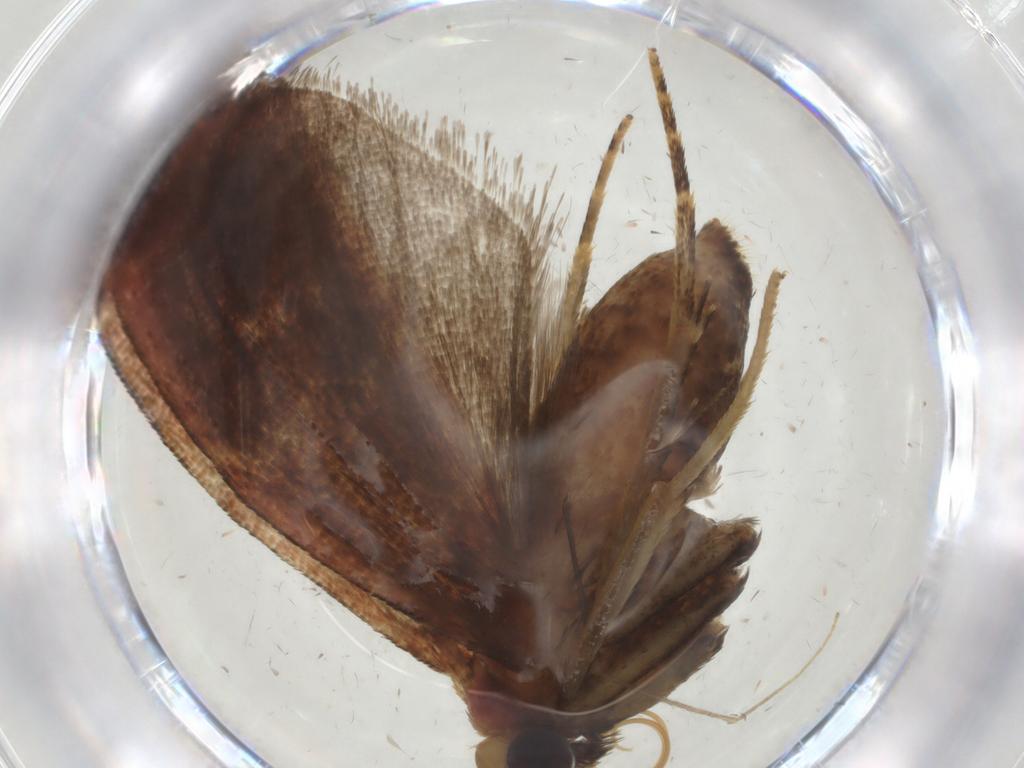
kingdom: Animalia
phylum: Arthropoda
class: Insecta
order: Lepidoptera
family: Pyralidae
